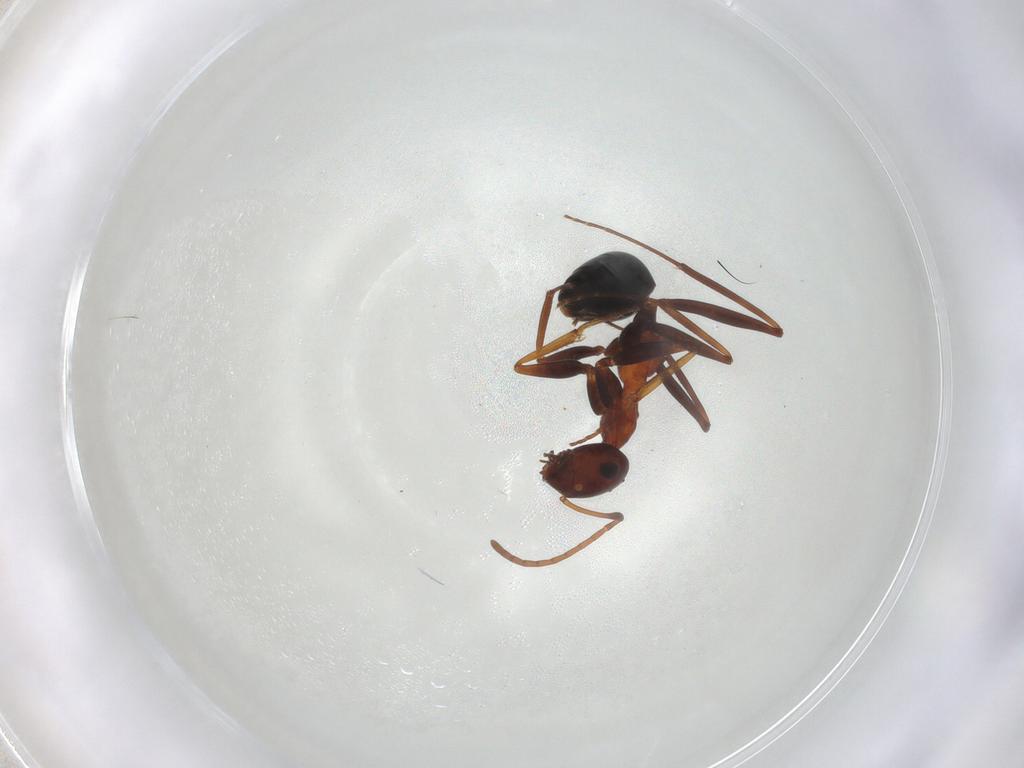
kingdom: Animalia
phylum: Arthropoda
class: Insecta
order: Hymenoptera
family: Formicidae
